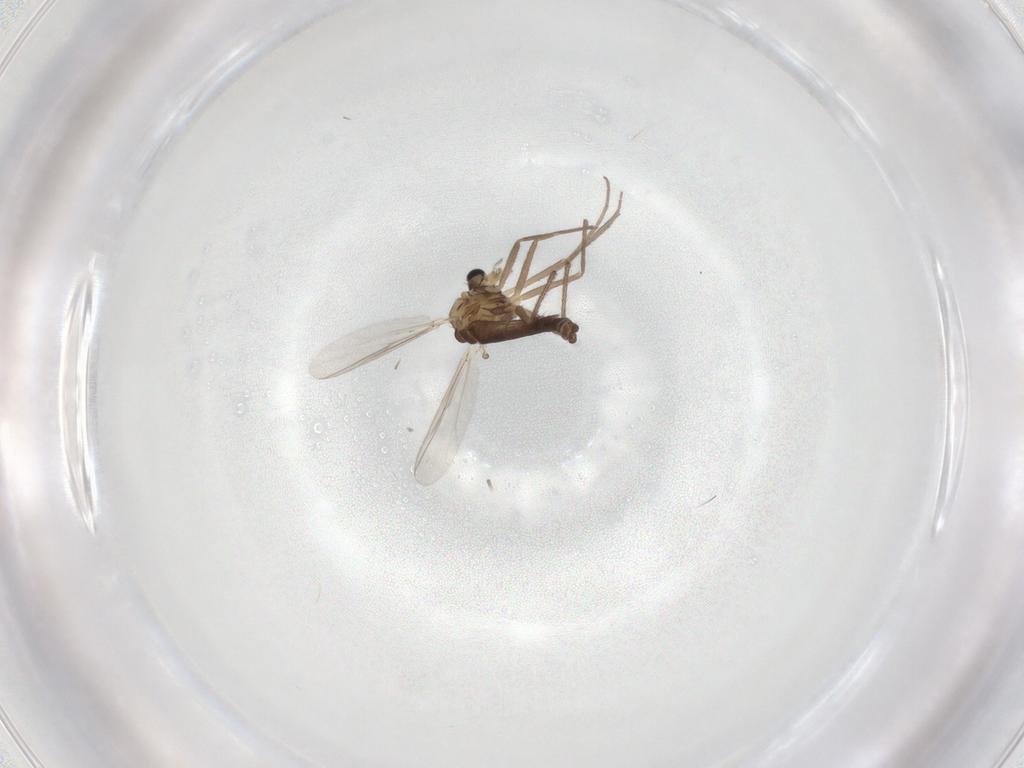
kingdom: Animalia
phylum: Arthropoda
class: Insecta
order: Diptera
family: Chironomidae
